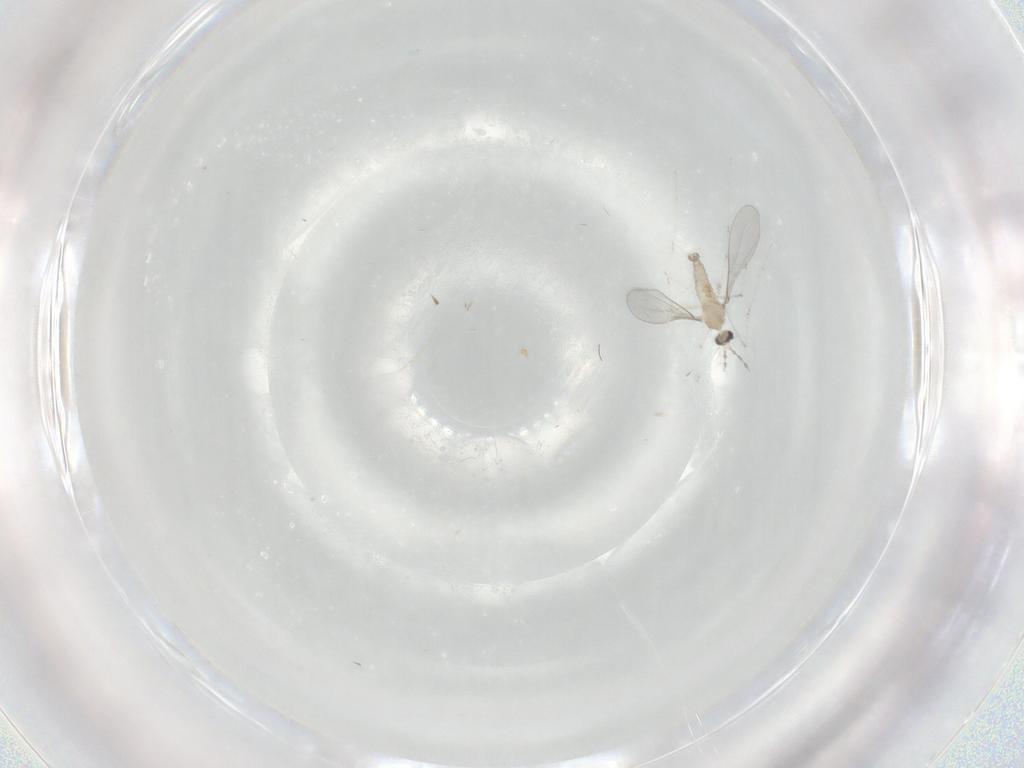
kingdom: Animalia
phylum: Arthropoda
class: Insecta
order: Diptera
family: Cecidomyiidae
